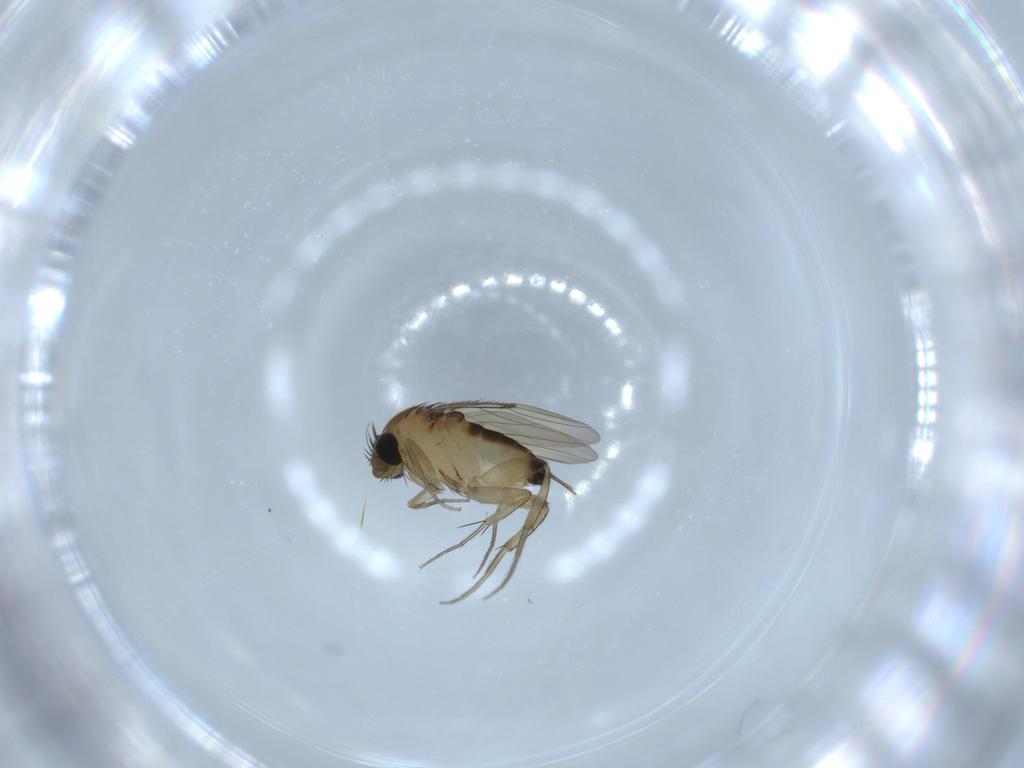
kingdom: Animalia
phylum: Arthropoda
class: Insecta
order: Diptera
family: Phoridae
